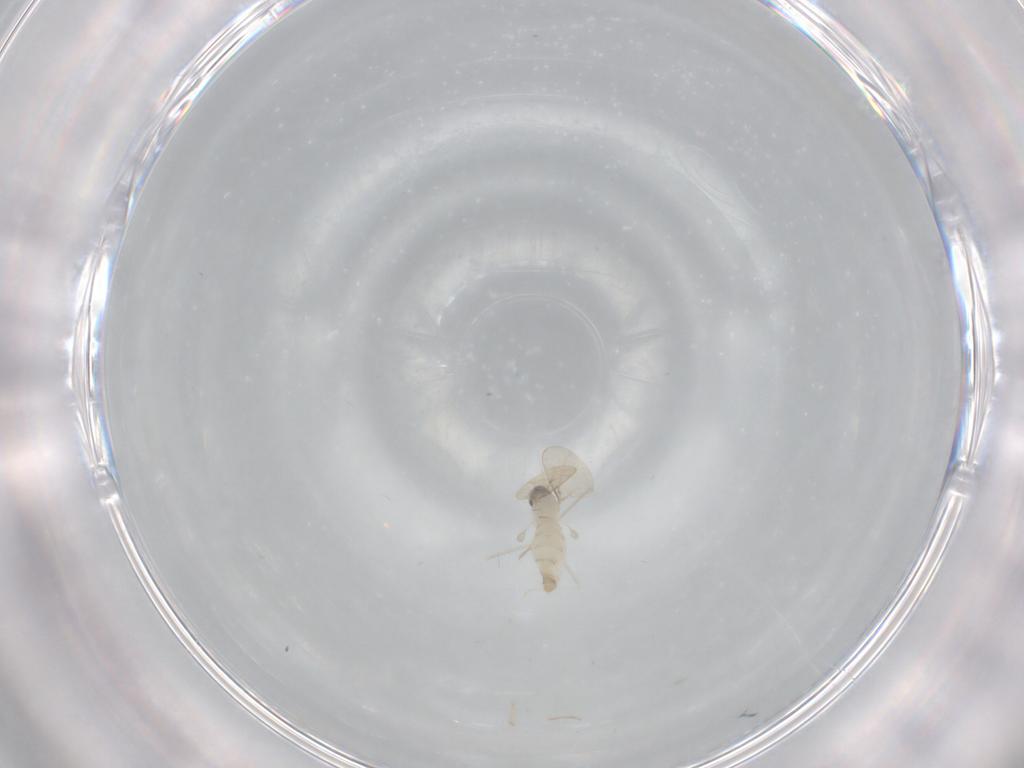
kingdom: Animalia
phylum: Arthropoda
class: Insecta
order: Diptera
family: Cecidomyiidae
